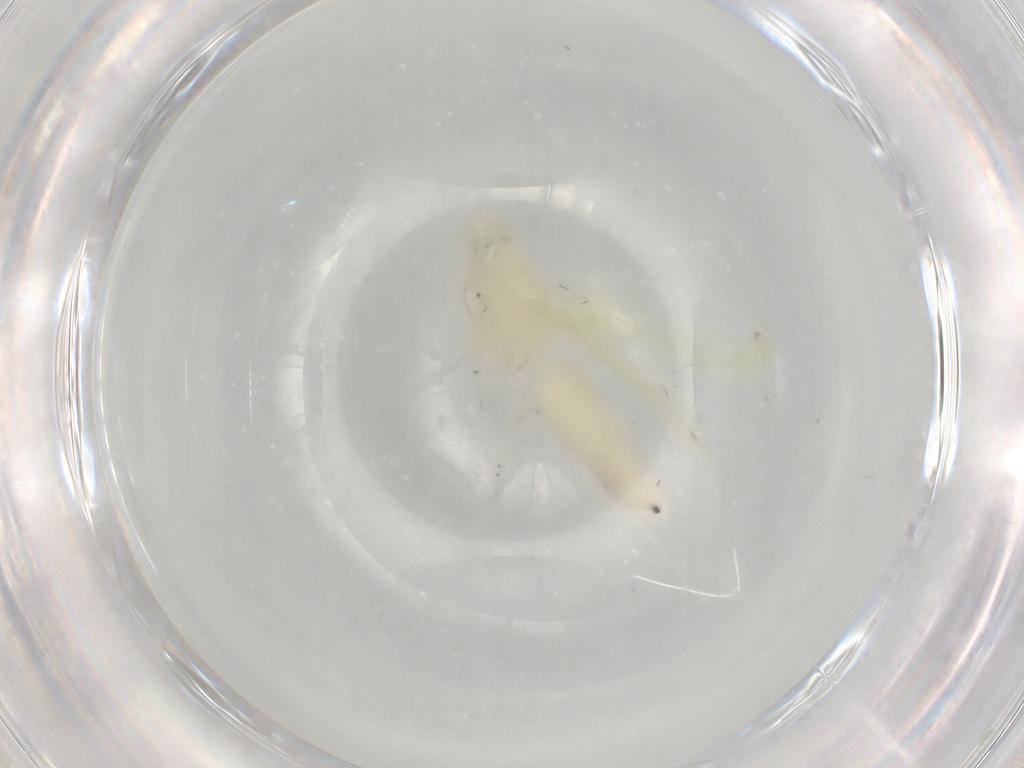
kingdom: Animalia
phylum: Arthropoda
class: Insecta
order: Hemiptera
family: Cicadellidae
